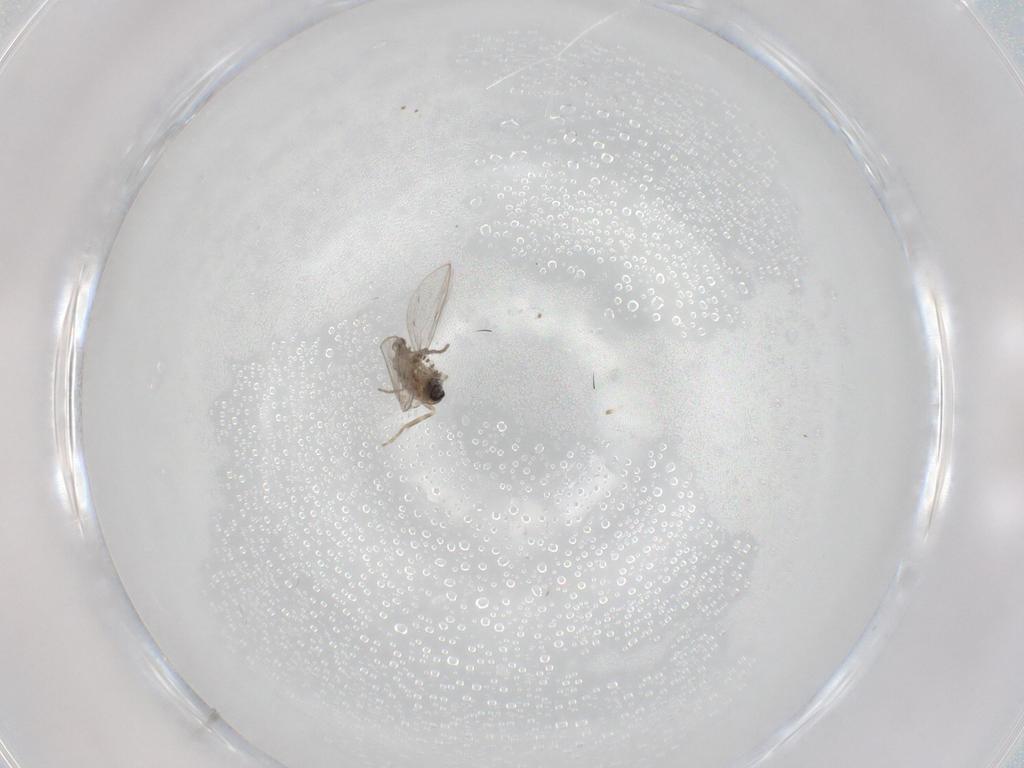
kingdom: Animalia
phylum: Arthropoda
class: Insecta
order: Diptera
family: Psychodidae
